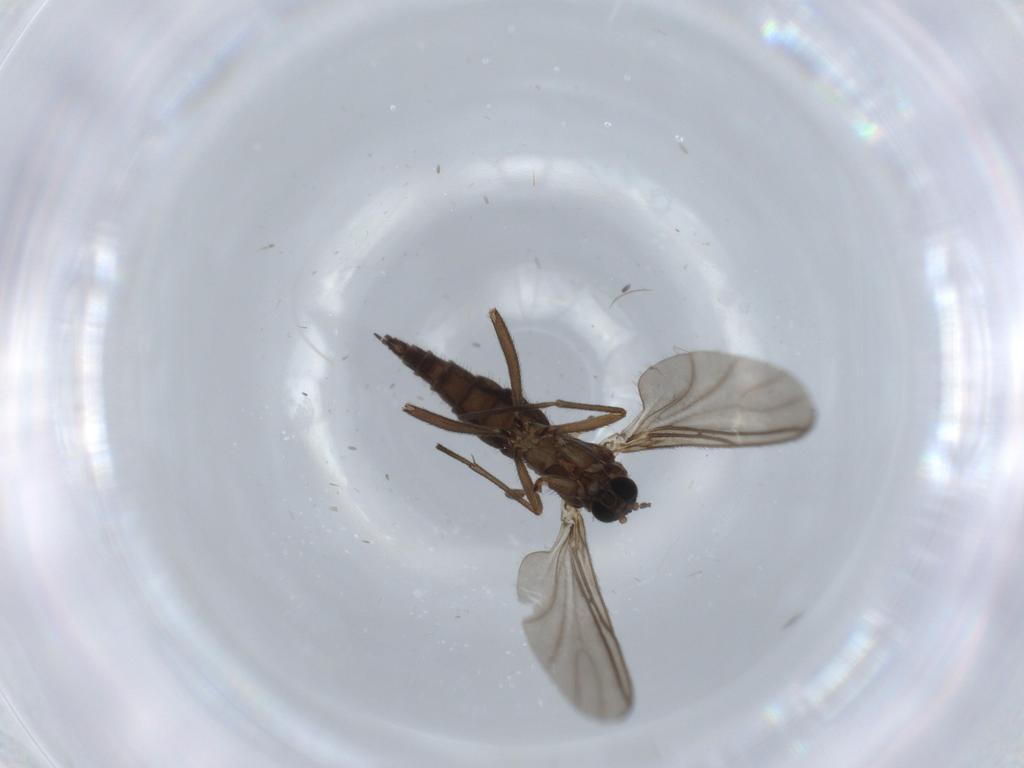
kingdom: Animalia
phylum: Arthropoda
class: Insecta
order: Diptera
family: Sciaridae
